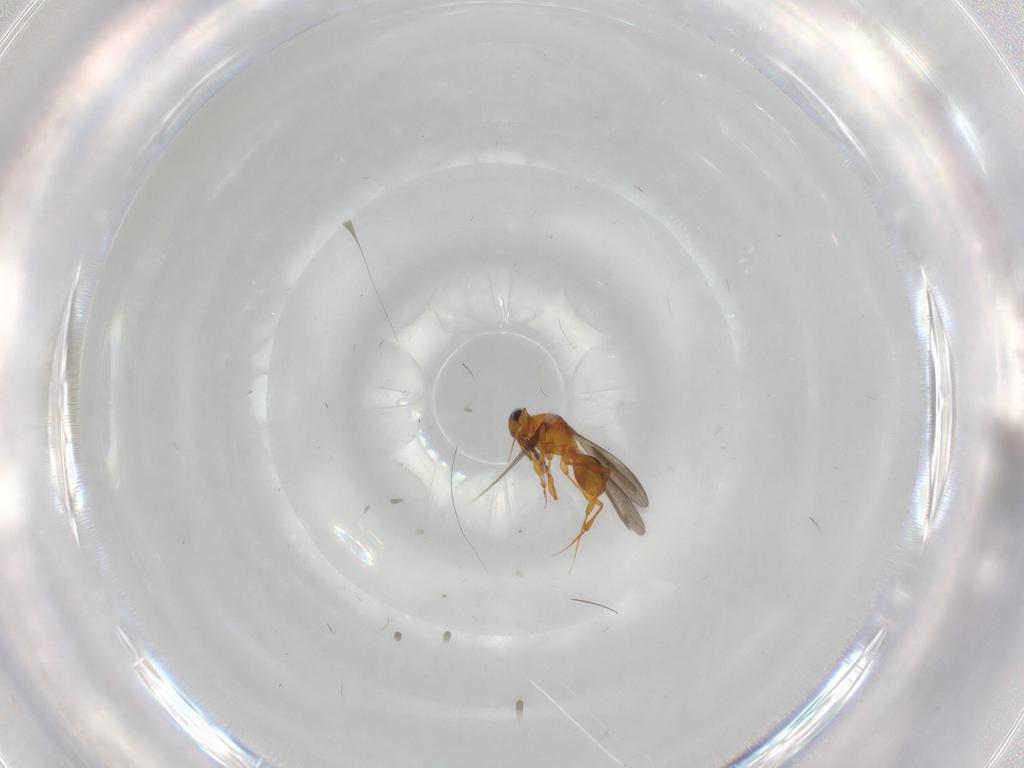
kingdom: Animalia
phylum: Arthropoda
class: Insecta
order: Hymenoptera
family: Platygastridae
